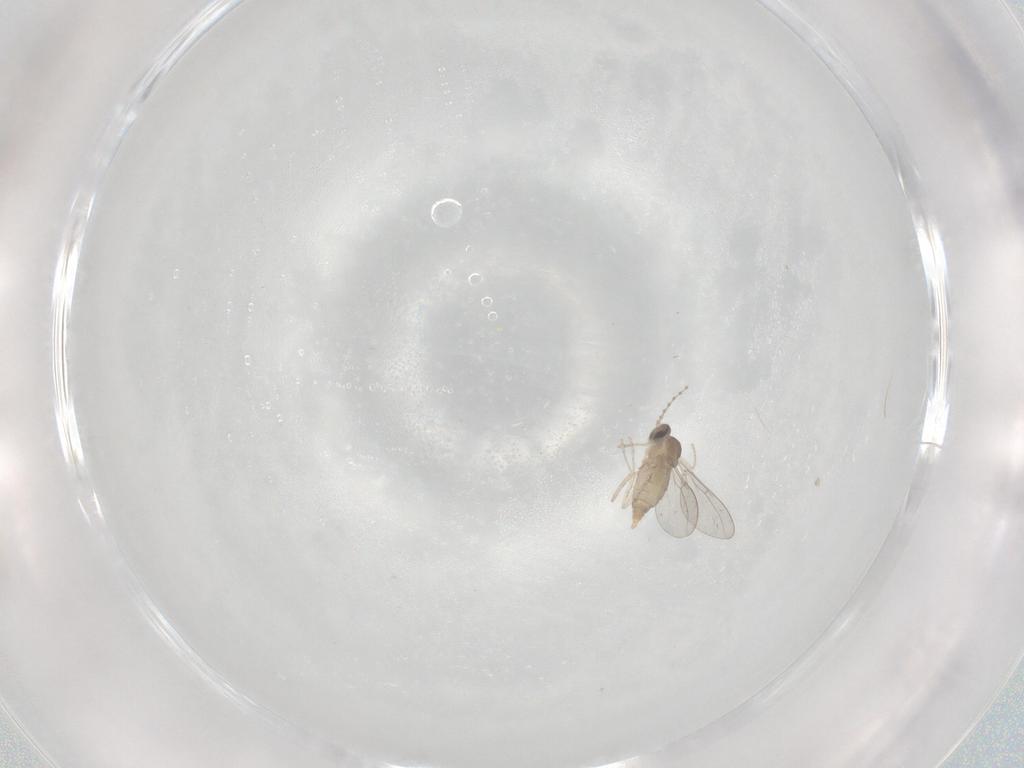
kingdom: Animalia
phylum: Arthropoda
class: Insecta
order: Diptera
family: Cecidomyiidae
